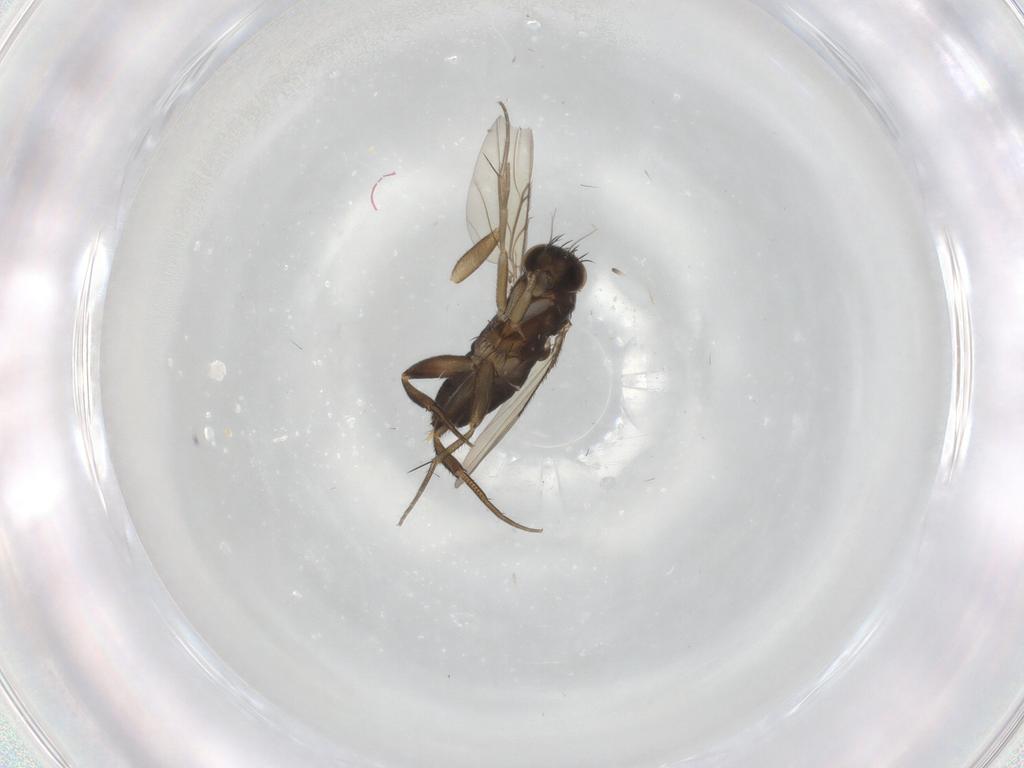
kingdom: Animalia
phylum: Arthropoda
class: Insecta
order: Diptera
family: Phoridae
